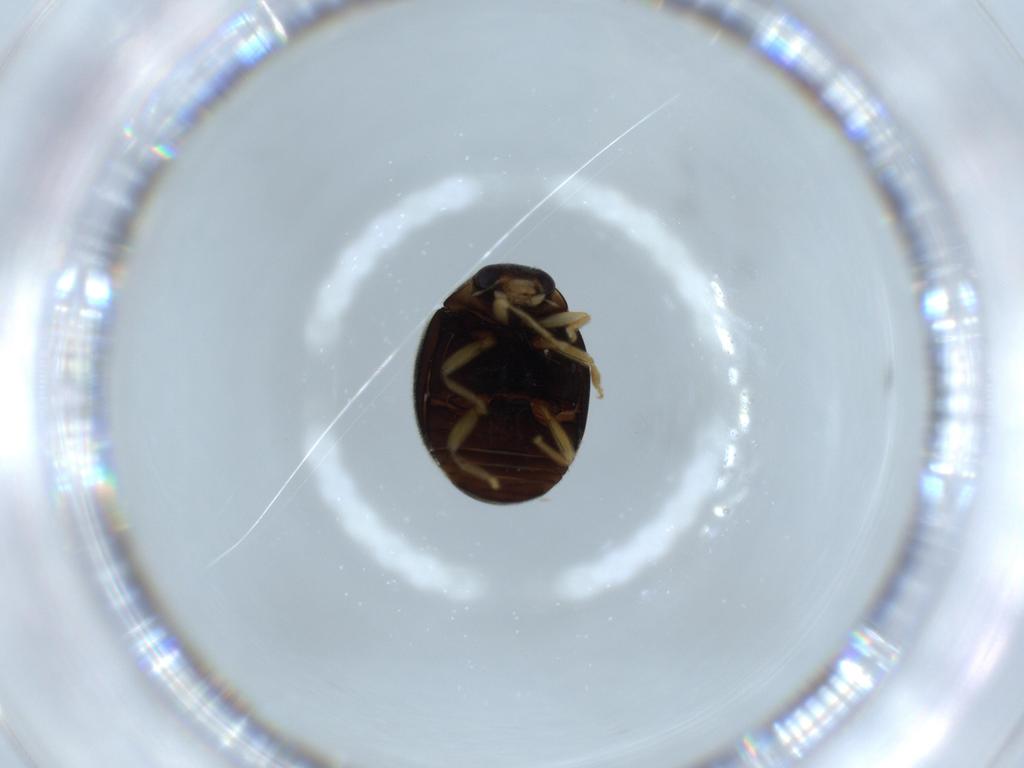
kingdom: Animalia
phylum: Arthropoda
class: Insecta
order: Coleoptera
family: Coccinellidae
